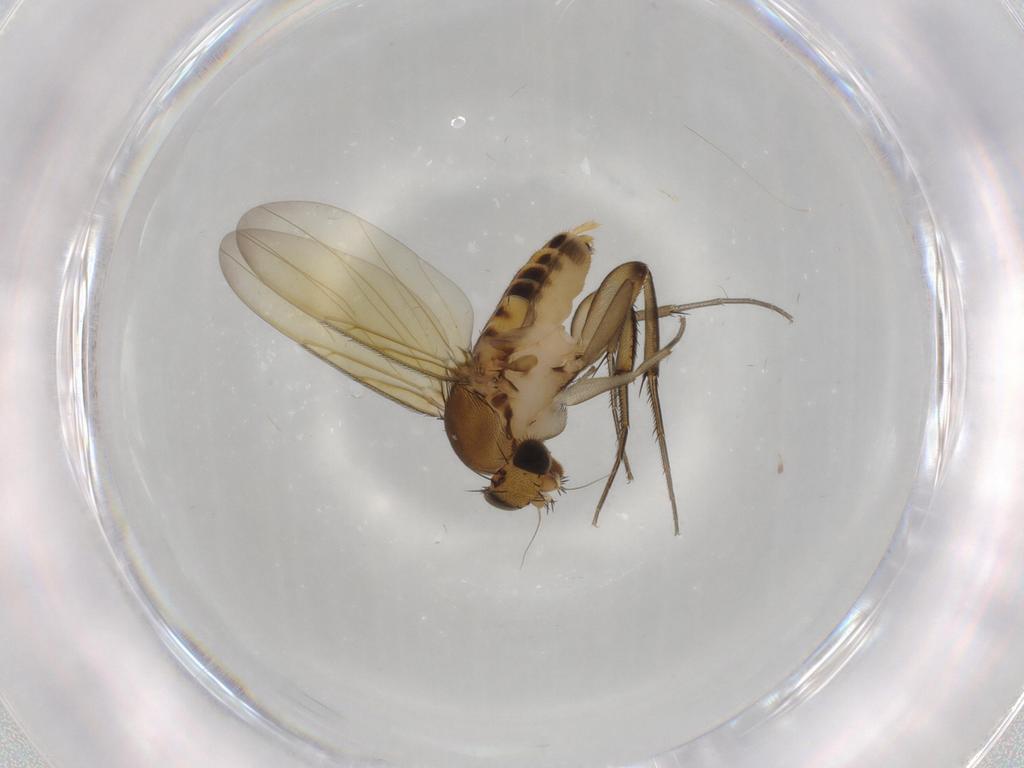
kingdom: Animalia
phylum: Arthropoda
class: Insecta
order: Diptera
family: Phoridae
